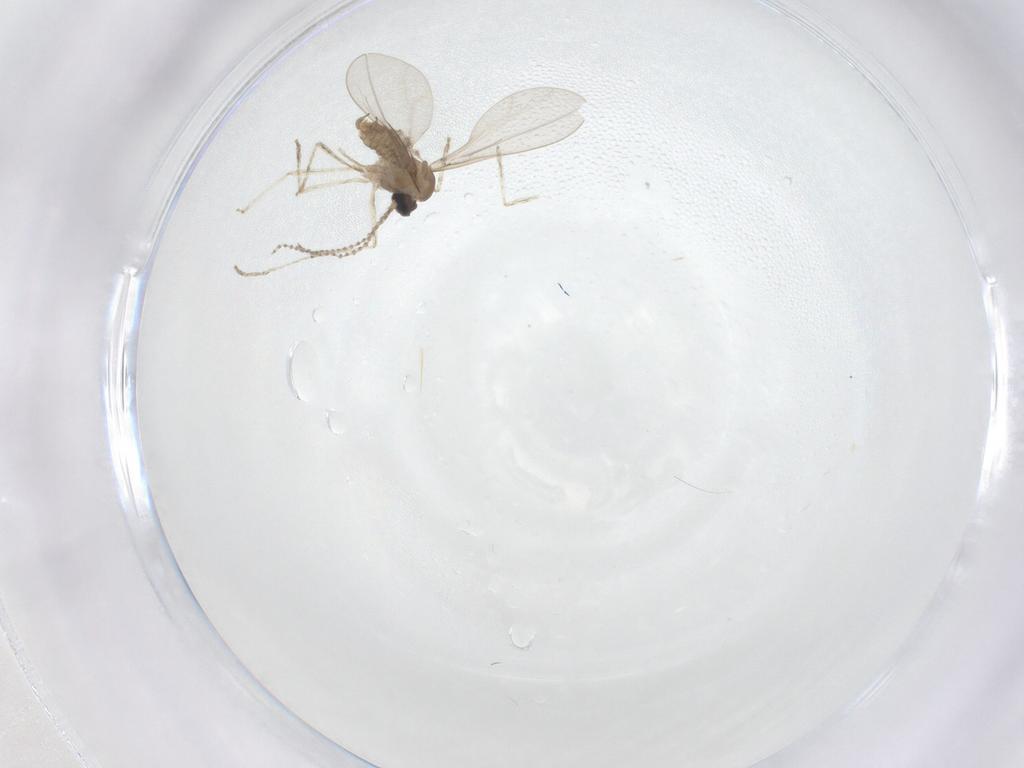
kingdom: Animalia
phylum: Arthropoda
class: Insecta
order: Diptera
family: Cecidomyiidae
